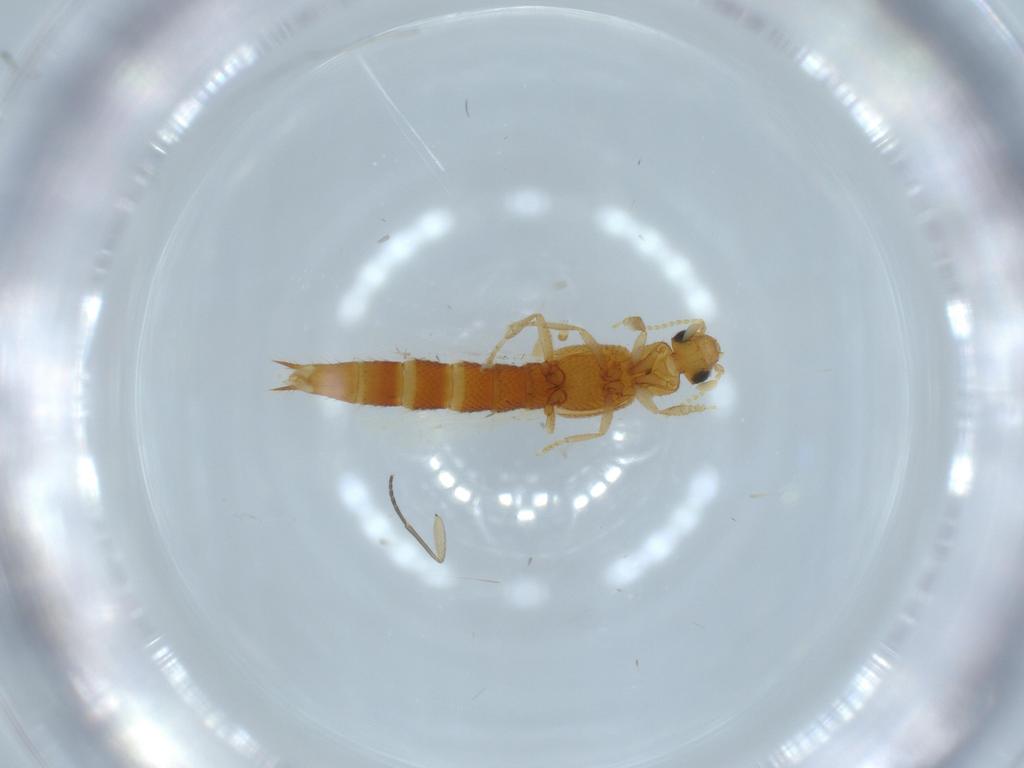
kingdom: Animalia
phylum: Arthropoda
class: Insecta
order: Coleoptera
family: Staphylinidae
